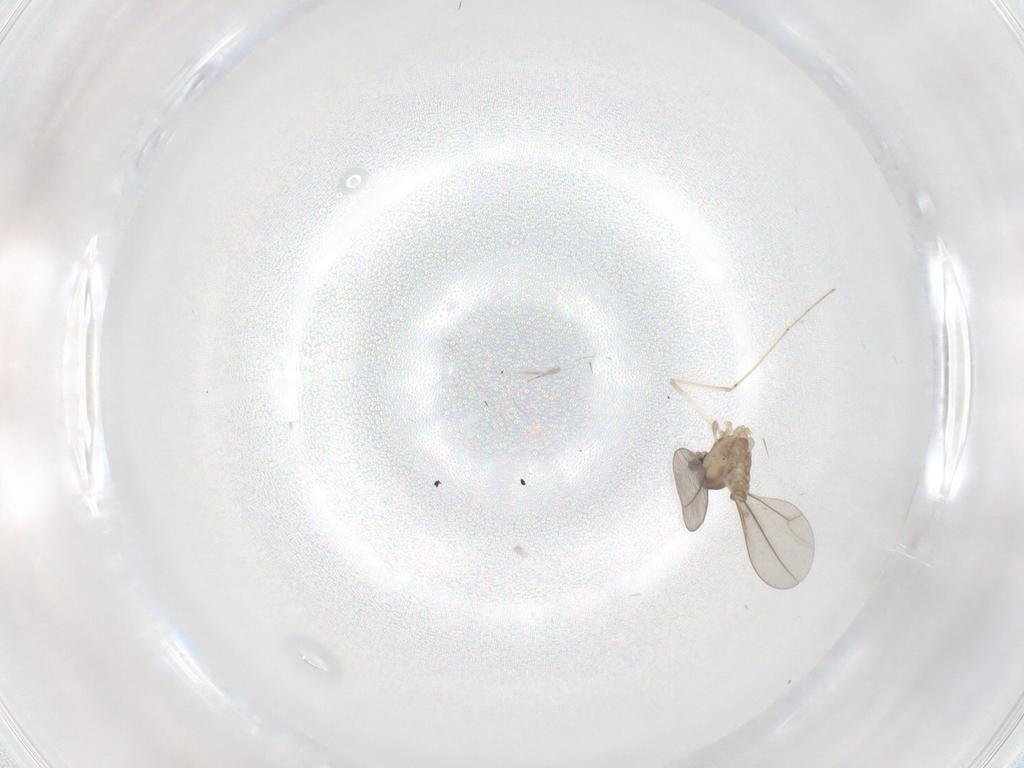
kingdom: Animalia
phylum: Arthropoda
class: Insecta
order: Diptera
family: Cecidomyiidae
